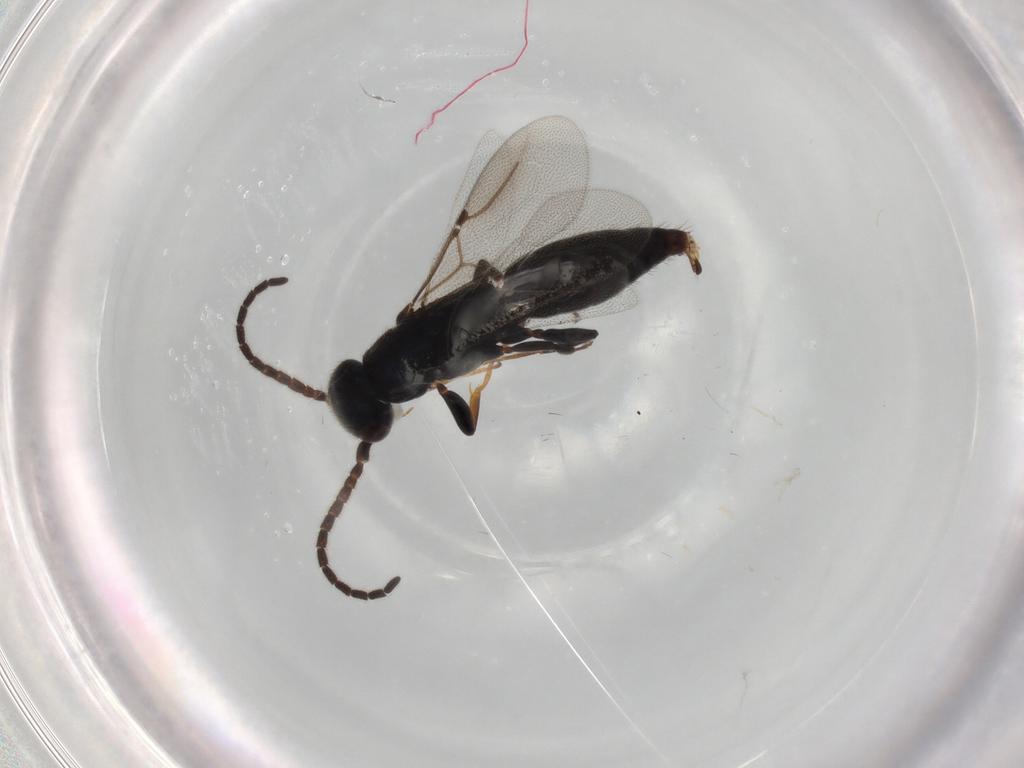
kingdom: Animalia
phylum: Arthropoda
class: Insecta
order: Hymenoptera
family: Bethylidae
